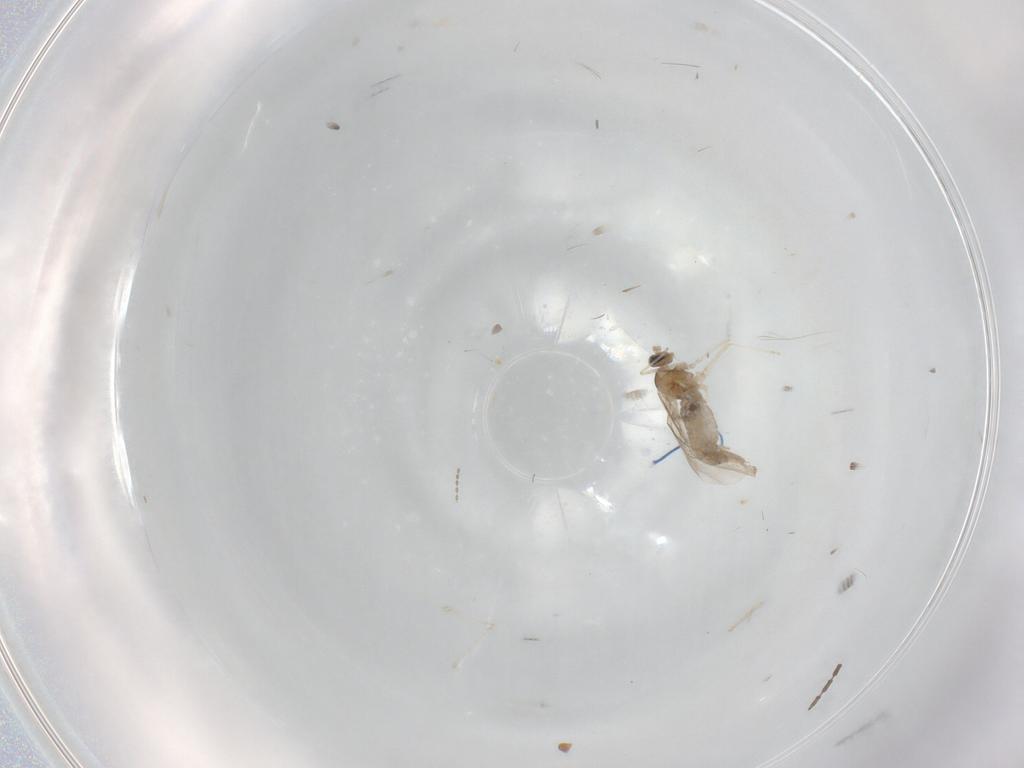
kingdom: Animalia
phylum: Arthropoda
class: Insecta
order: Diptera
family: Cecidomyiidae
